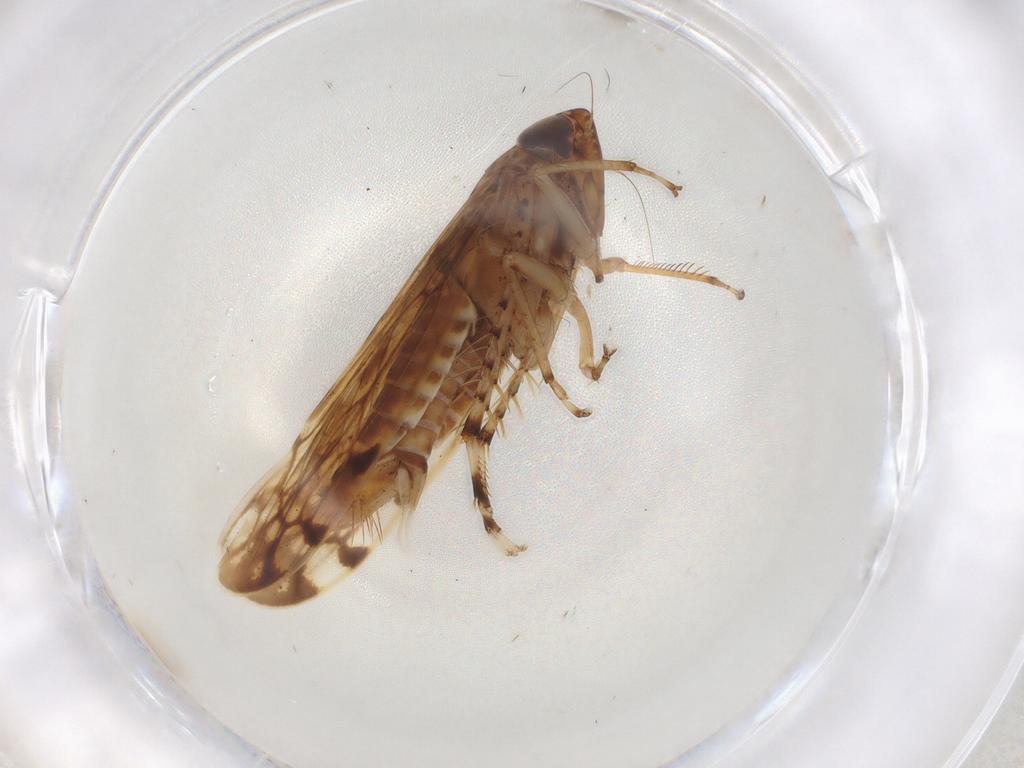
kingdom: Animalia
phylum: Arthropoda
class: Insecta
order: Hemiptera
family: Cicadellidae
